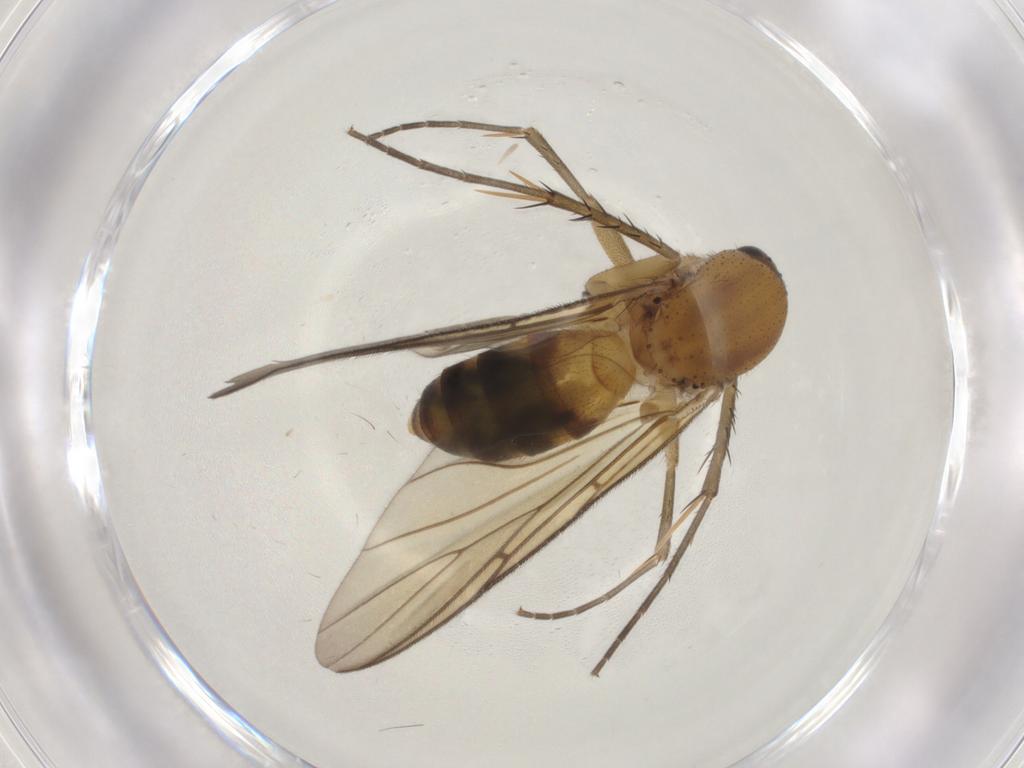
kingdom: Animalia
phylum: Arthropoda
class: Insecta
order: Diptera
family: Mycetophilidae
